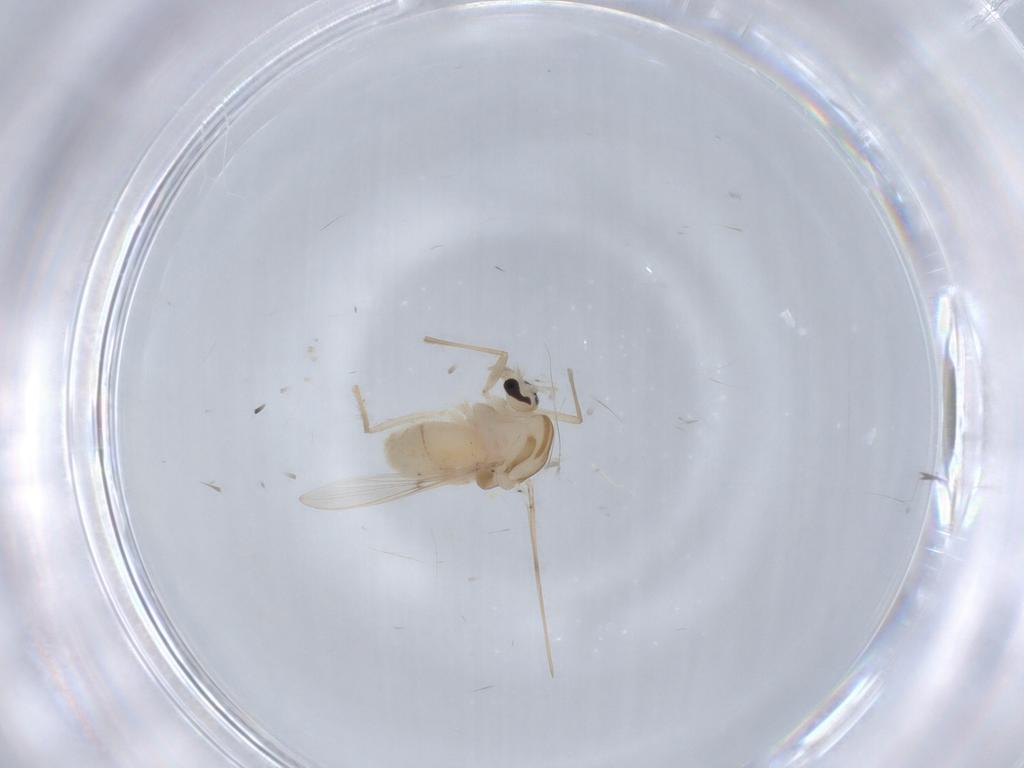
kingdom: Animalia
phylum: Arthropoda
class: Insecta
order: Diptera
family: Chironomidae
